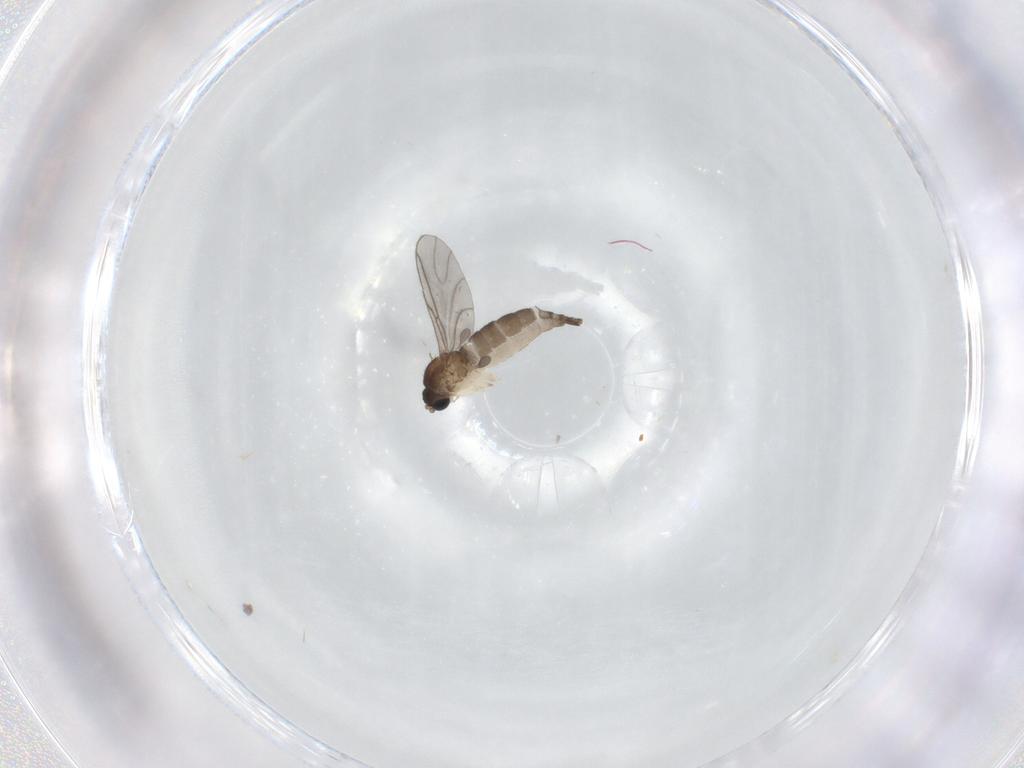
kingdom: Animalia
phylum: Arthropoda
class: Insecta
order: Diptera
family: Sciaridae
